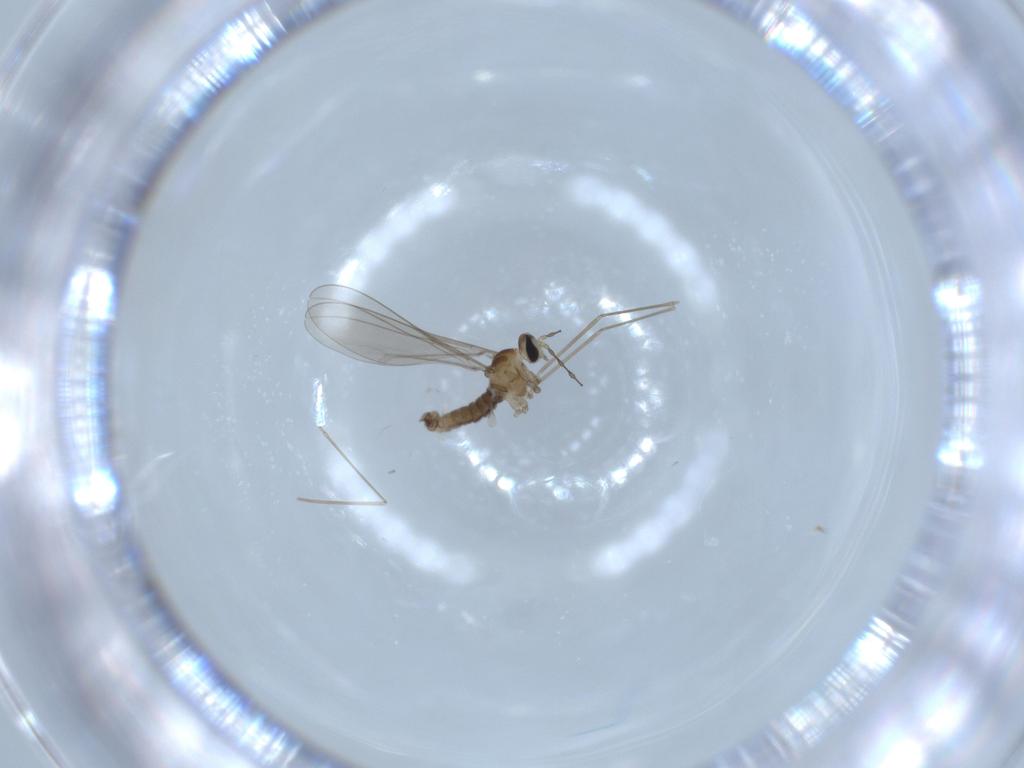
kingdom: Animalia
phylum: Arthropoda
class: Insecta
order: Diptera
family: Cecidomyiidae
